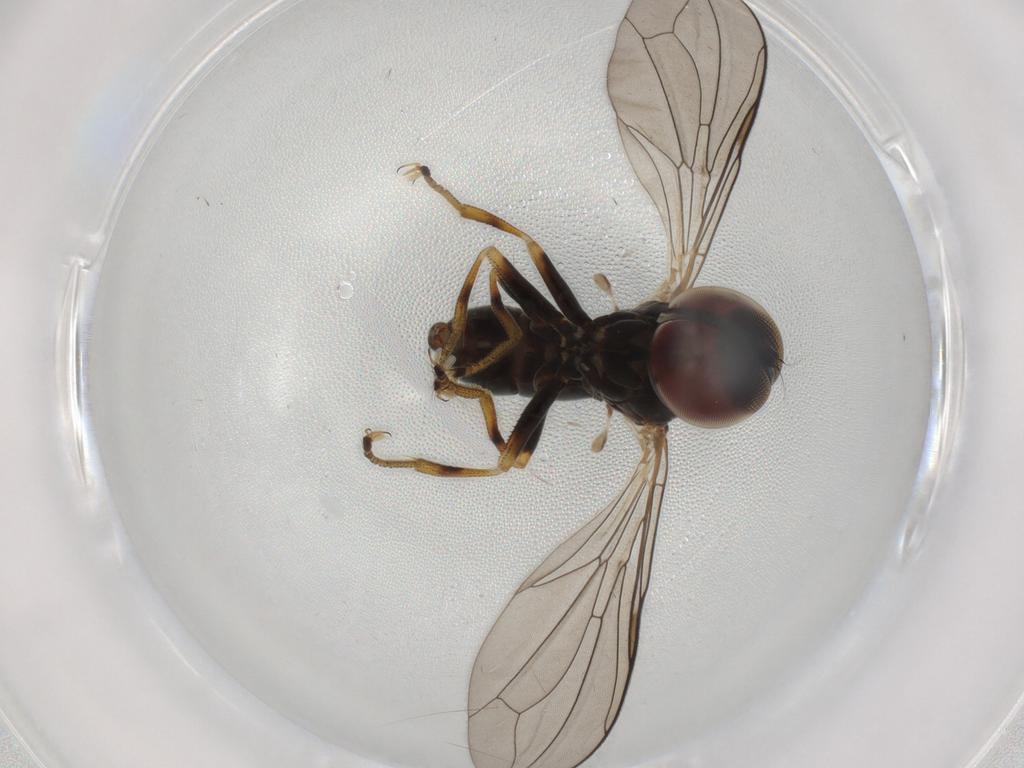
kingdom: Animalia
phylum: Arthropoda
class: Insecta
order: Diptera
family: Pipunculidae
